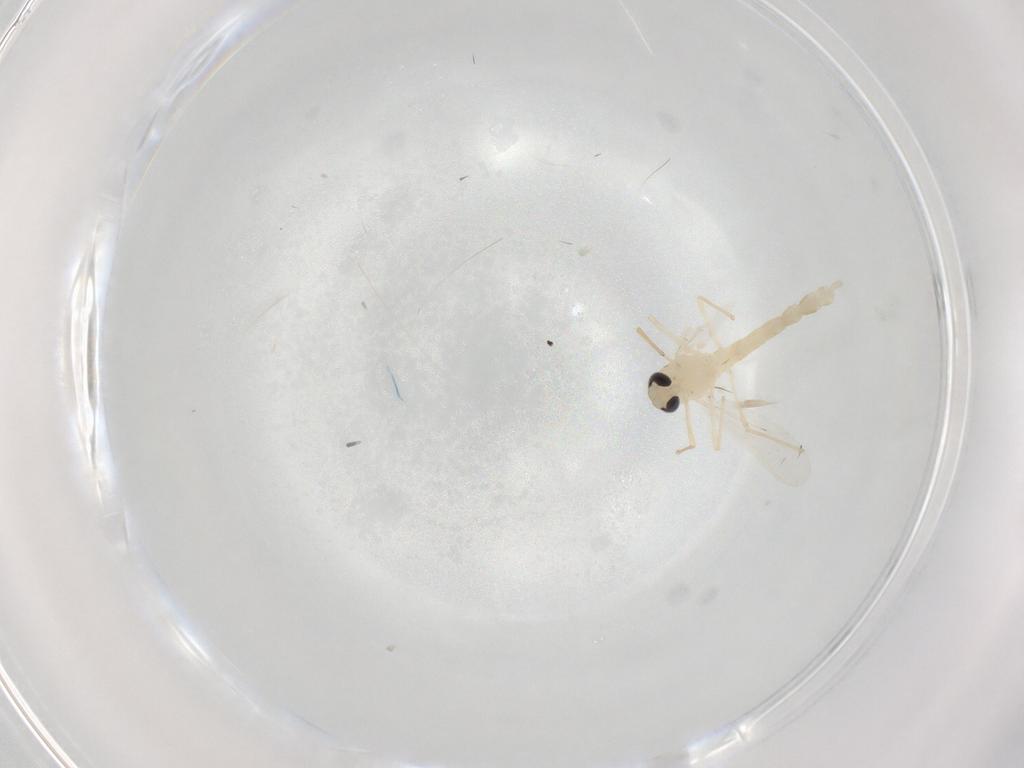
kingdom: Animalia
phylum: Arthropoda
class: Insecta
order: Diptera
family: Chironomidae
